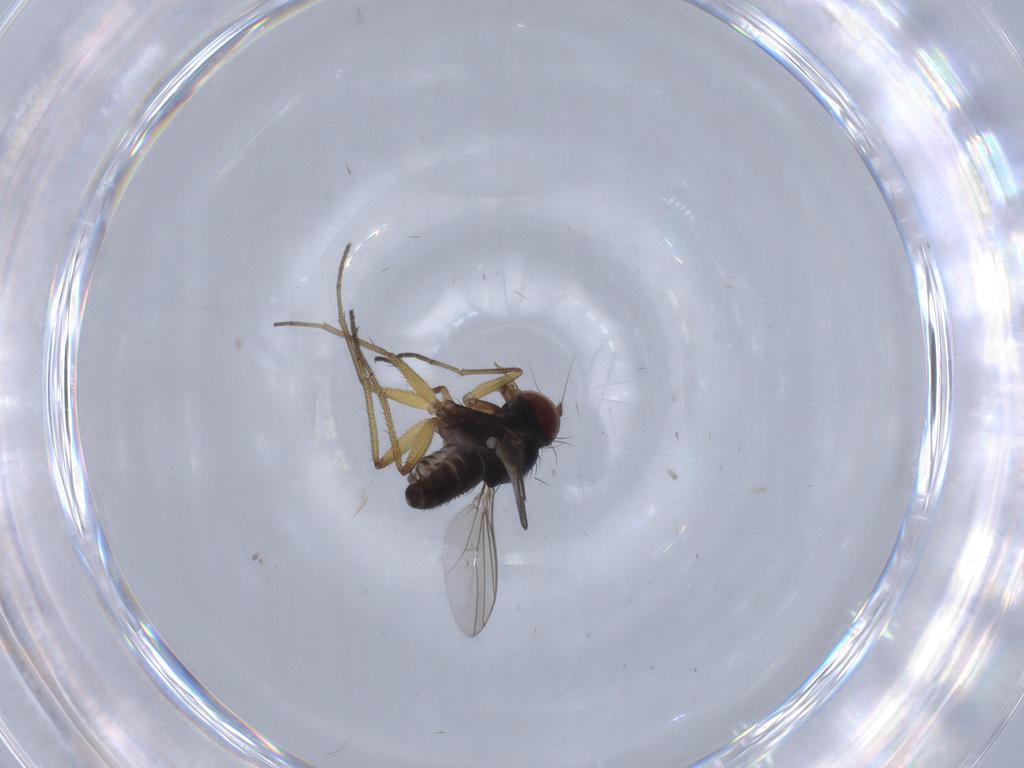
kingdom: Animalia
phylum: Arthropoda
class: Insecta
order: Diptera
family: Dolichopodidae
